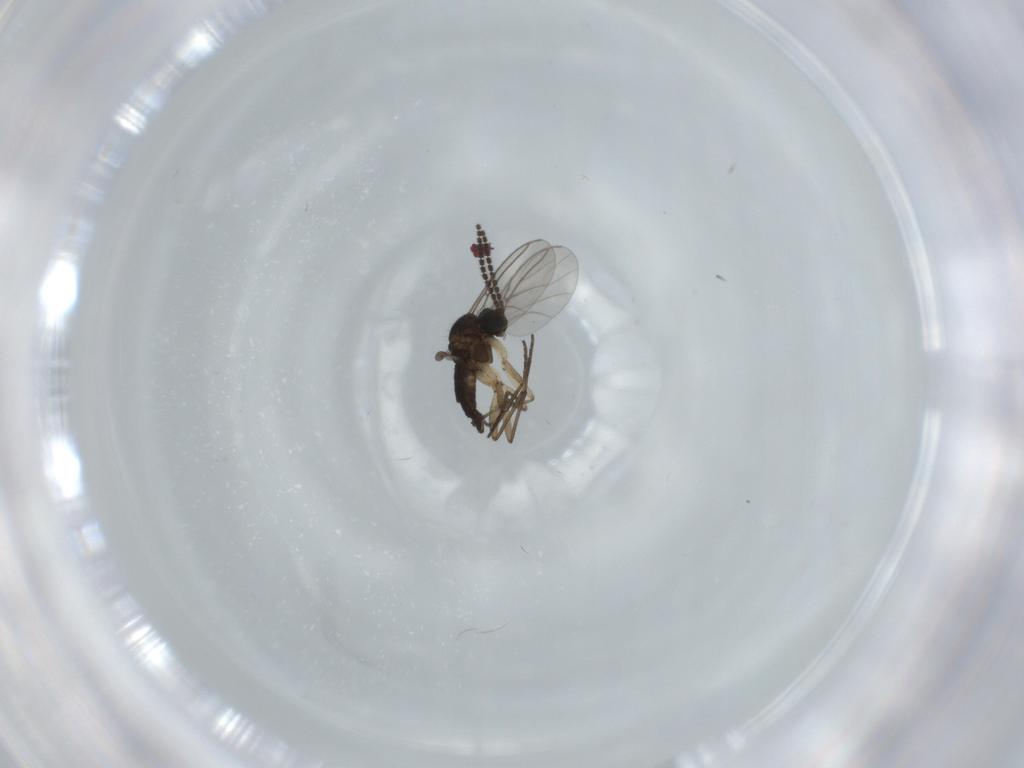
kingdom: Animalia
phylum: Arthropoda
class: Insecta
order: Diptera
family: Sciaridae
